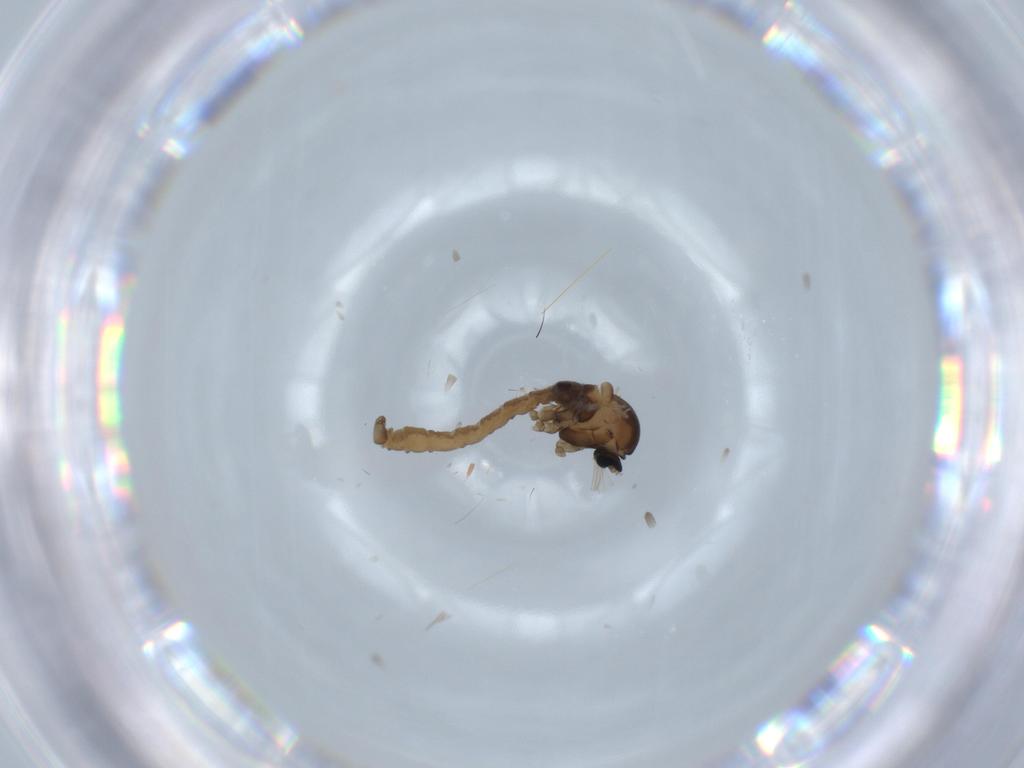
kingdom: Animalia
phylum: Arthropoda
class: Insecta
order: Diptera
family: Cecidomyiidae
